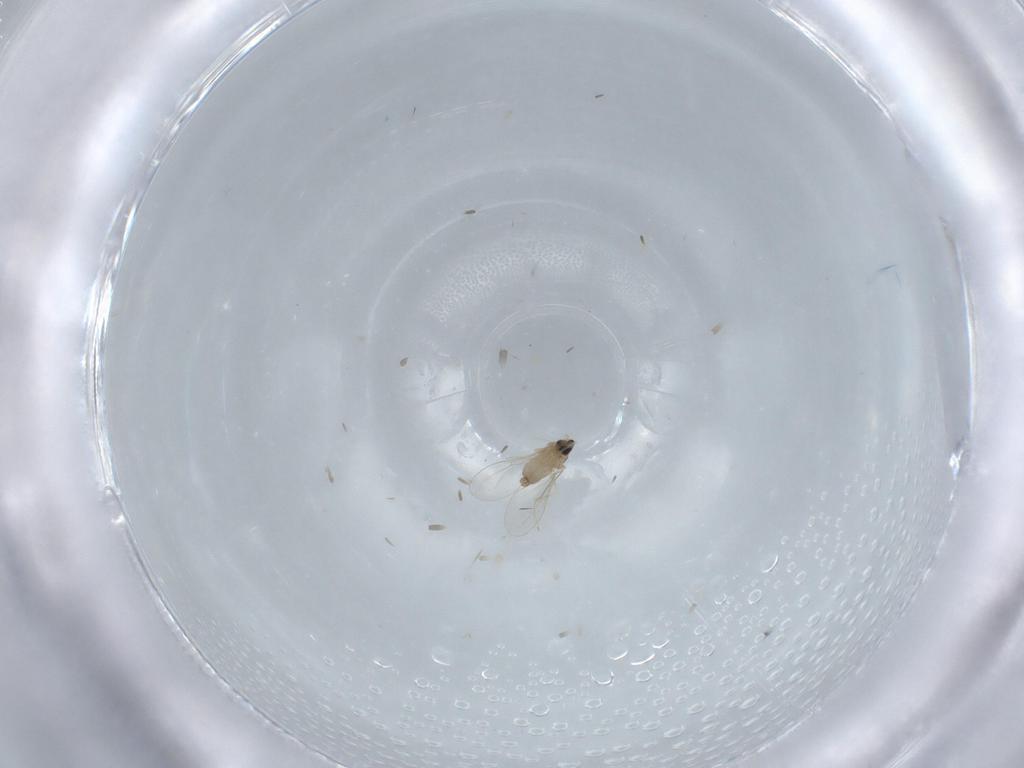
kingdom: Animalia
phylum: Arthropoda
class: Insecta
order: Diptera
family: Cecidomyiidae
